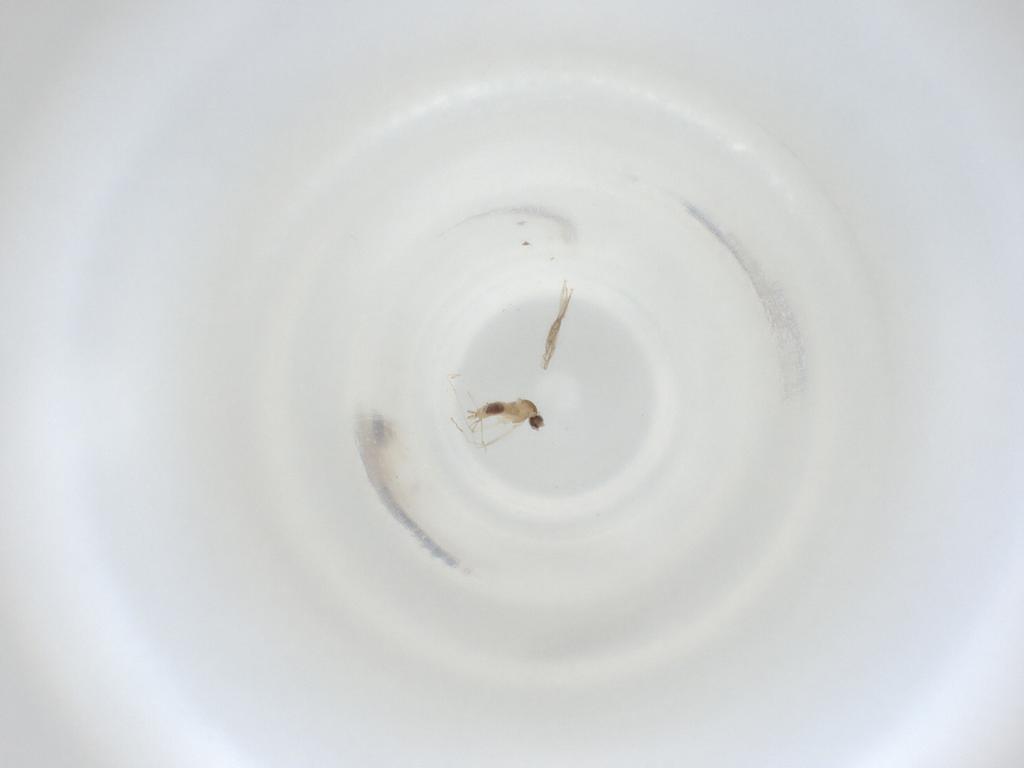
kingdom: Animalia
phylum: Arthropoda
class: Insecta
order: Diptera
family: Cecidomyiidae
